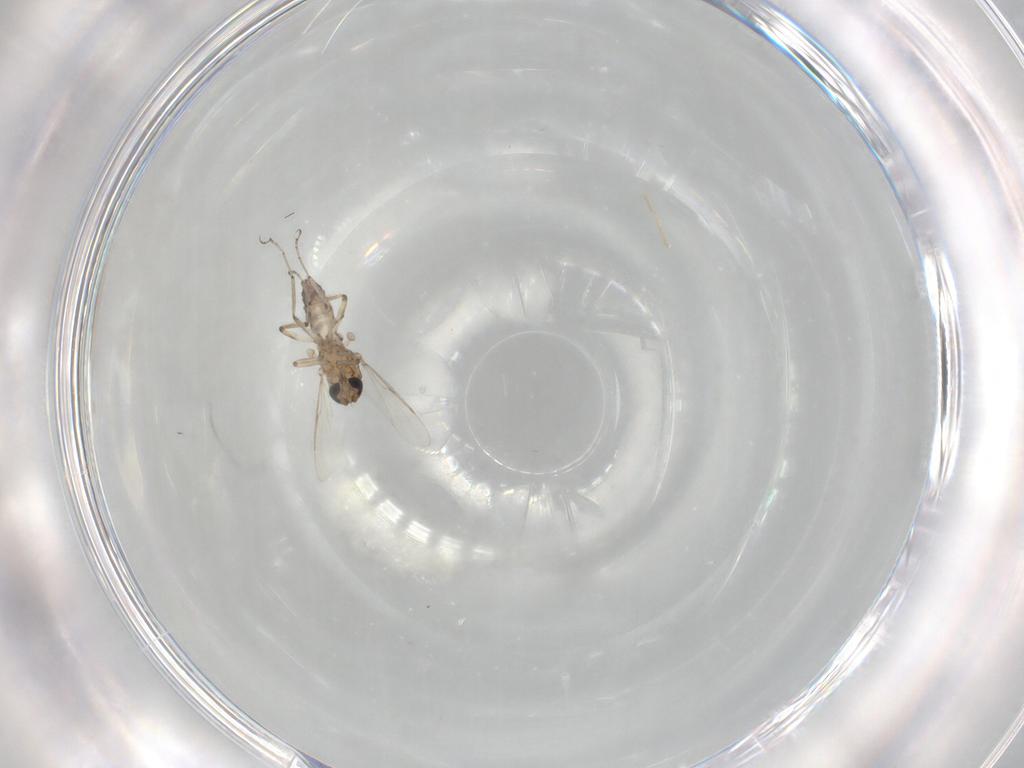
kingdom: Animalia
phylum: Arthropoda
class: Insecta
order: Diptera
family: Ceratopogonidae
